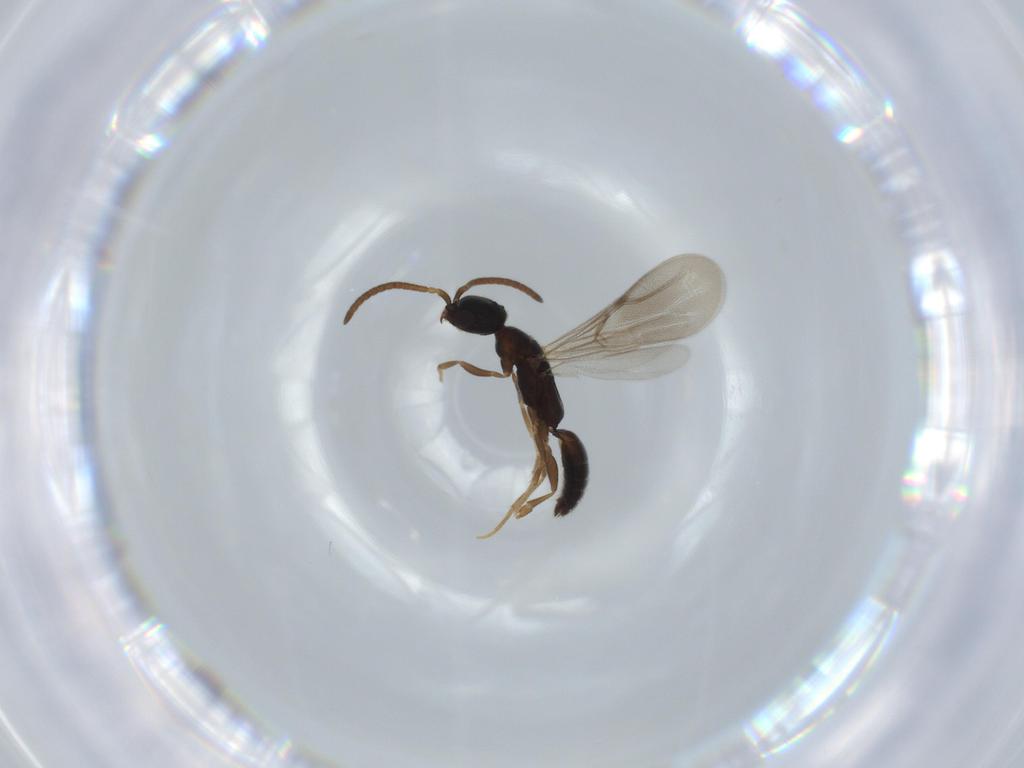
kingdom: Animalia
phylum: Arthropoda
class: Insecta
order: Hymenoptera
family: Bethylidae
